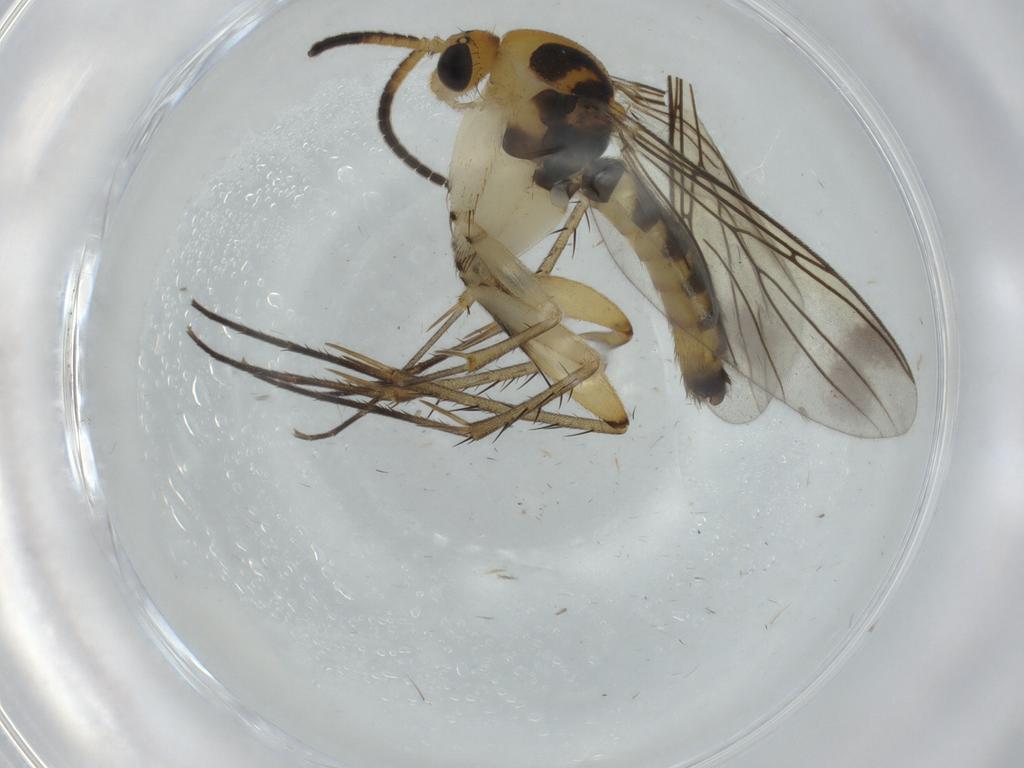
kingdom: Animalia
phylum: Arthropoda
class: Insecta
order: Diptera
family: Mycetophilidae
